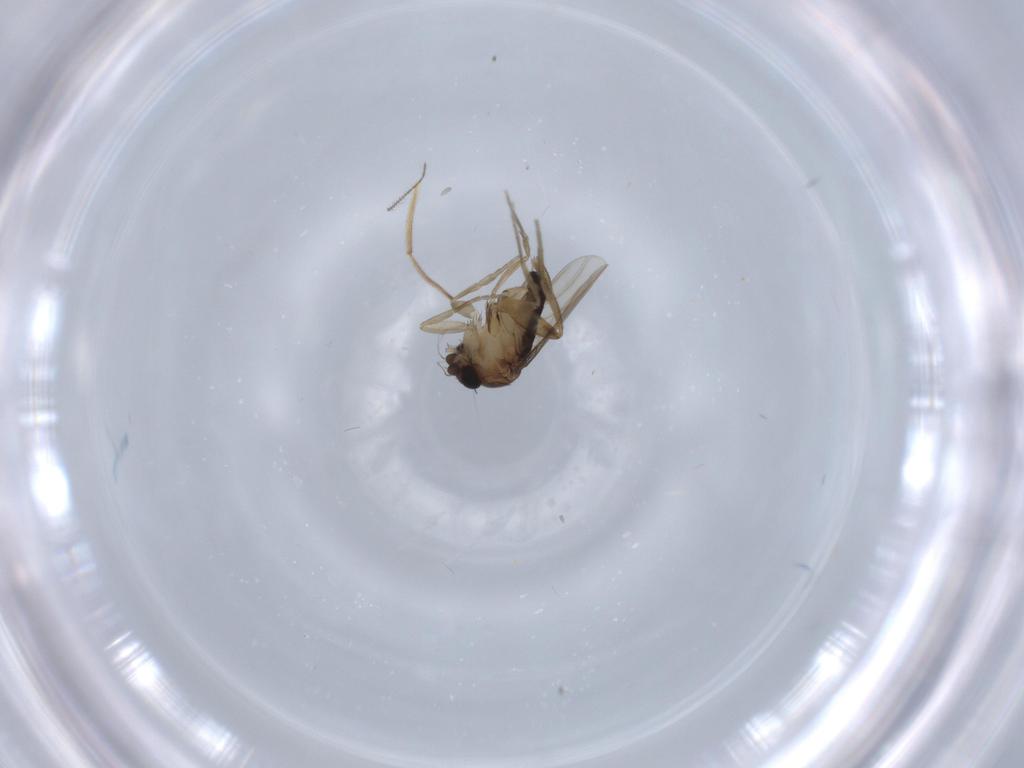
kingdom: Animalia
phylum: Arthropoda
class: Insecta
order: Diptera
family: Phoridae
